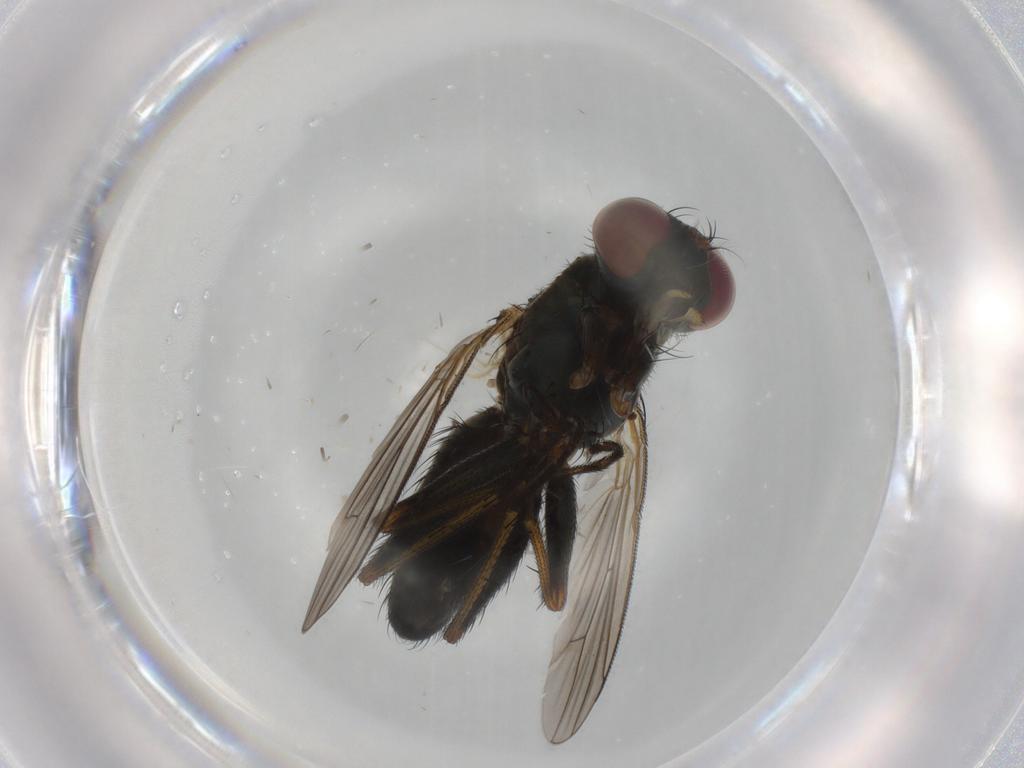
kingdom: Animalia
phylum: Arthropoda
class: Insecta
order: Diptera
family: Muscidae
